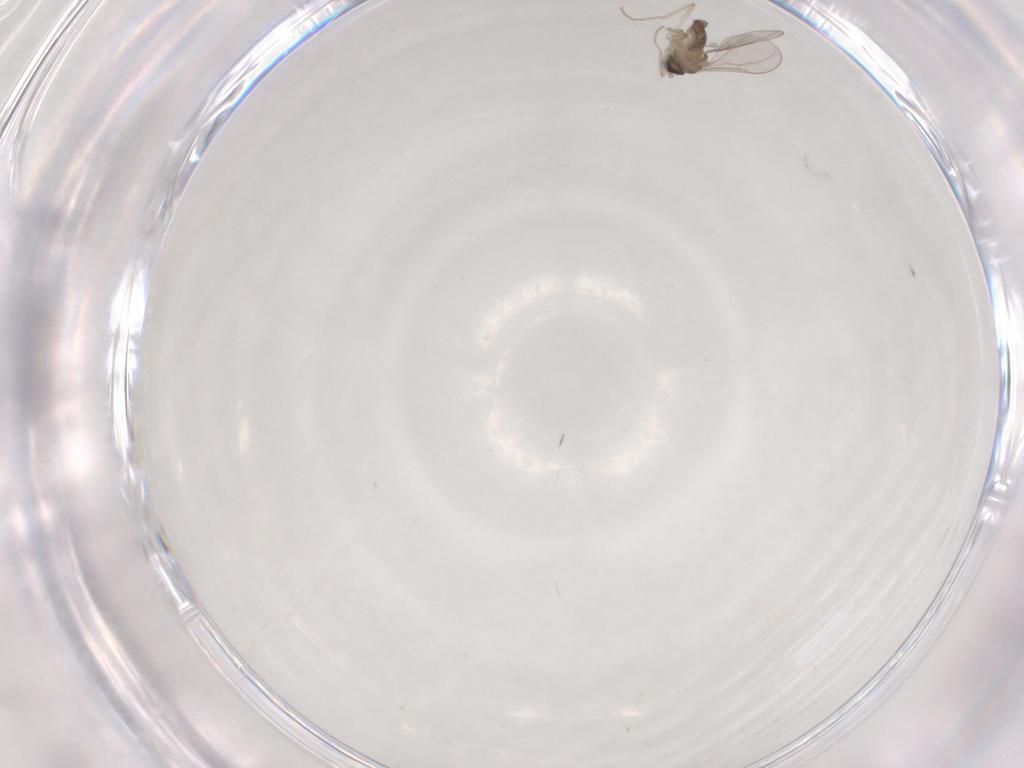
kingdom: Animalia
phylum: Arthropoda
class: Insecta
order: Diptera
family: Cecidomyiidae
